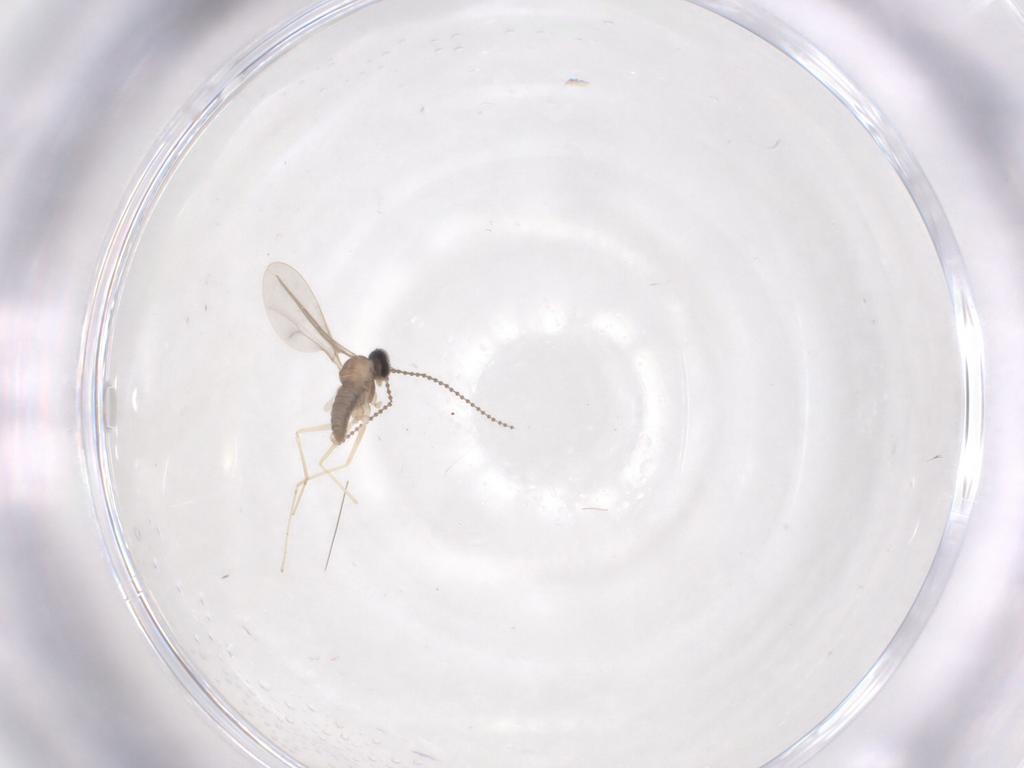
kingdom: Animalia
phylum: Arthropoda
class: Insecta
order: Diptera
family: Cecidomyiidae
